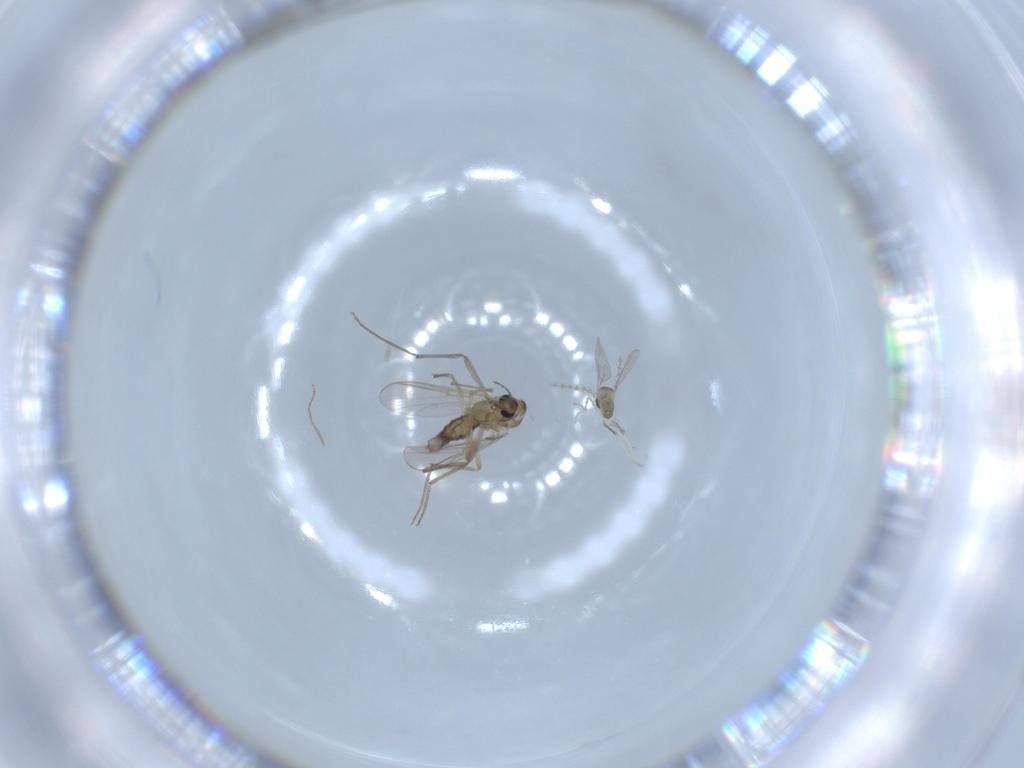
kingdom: Animalia
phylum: Arthropoda
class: Insecta
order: Diptera
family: Cecidomyiidae
